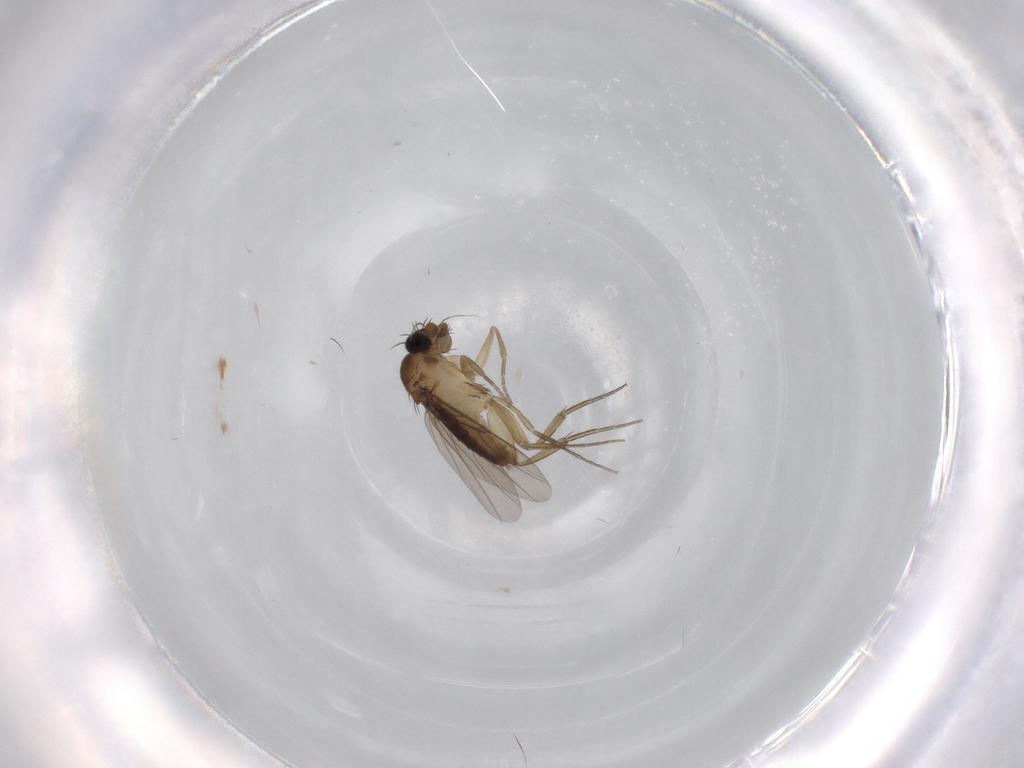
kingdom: Animalia
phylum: Arthropoda
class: Insecta
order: Diptera
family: Phoridae
